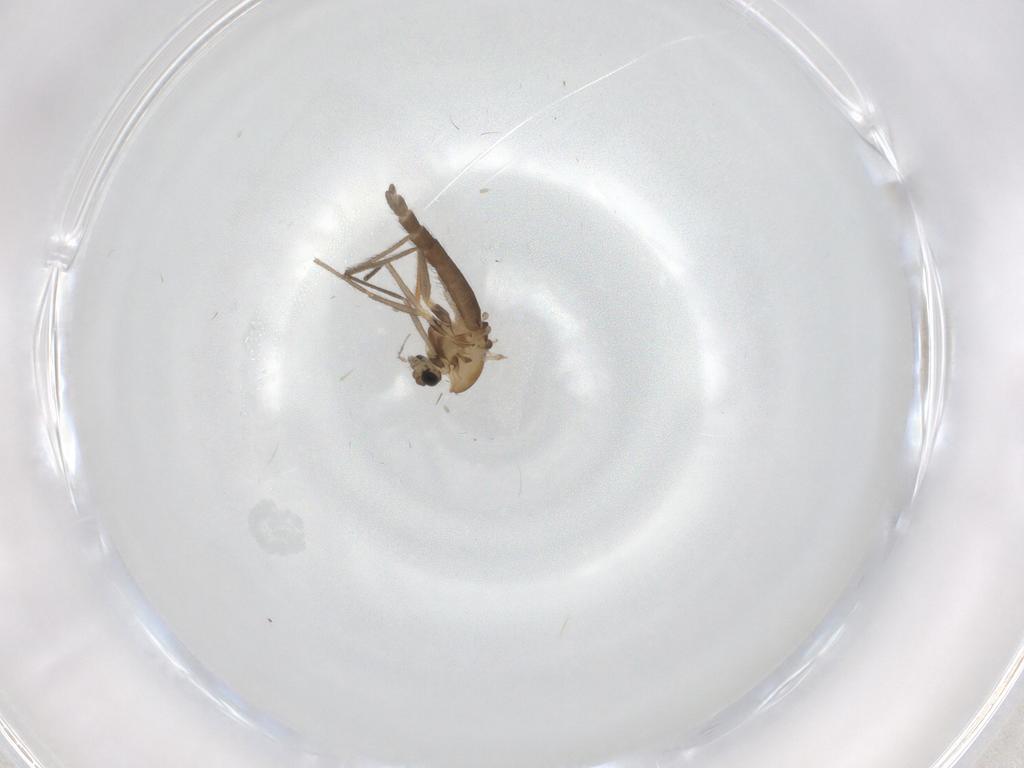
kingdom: Animalia
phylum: Arthropoda
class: Insecta
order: Diptera
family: Chironomidae
